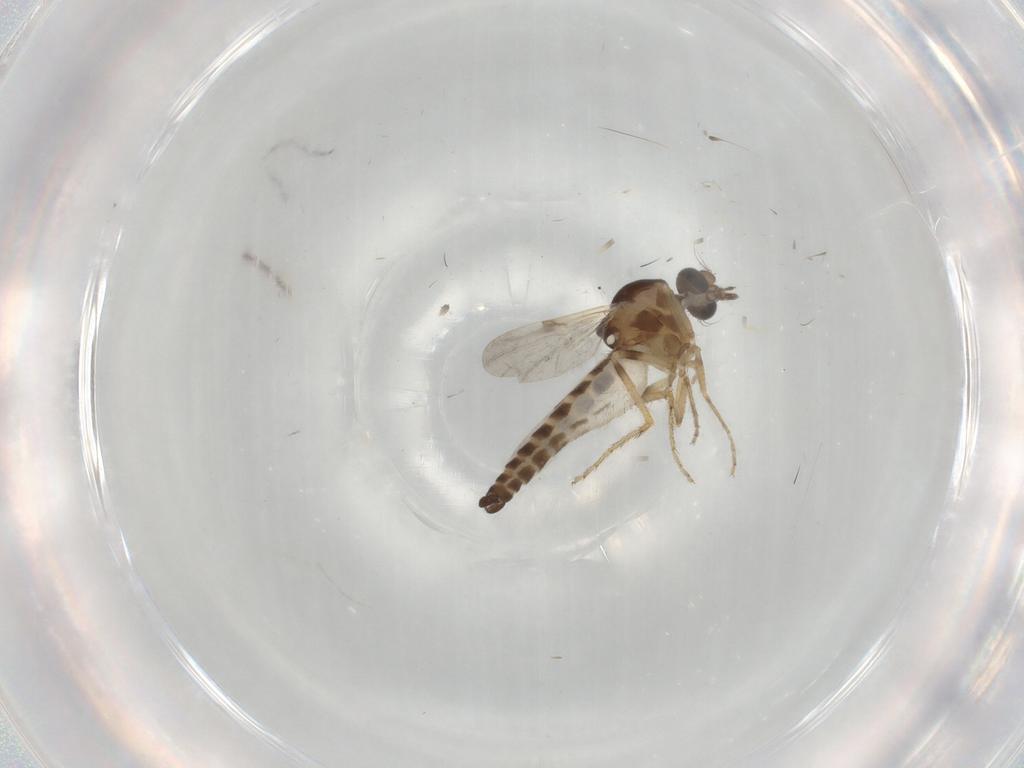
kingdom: Animalia
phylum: Arthropoda
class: Insecta
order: Diptera
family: Ceratopogonidae
